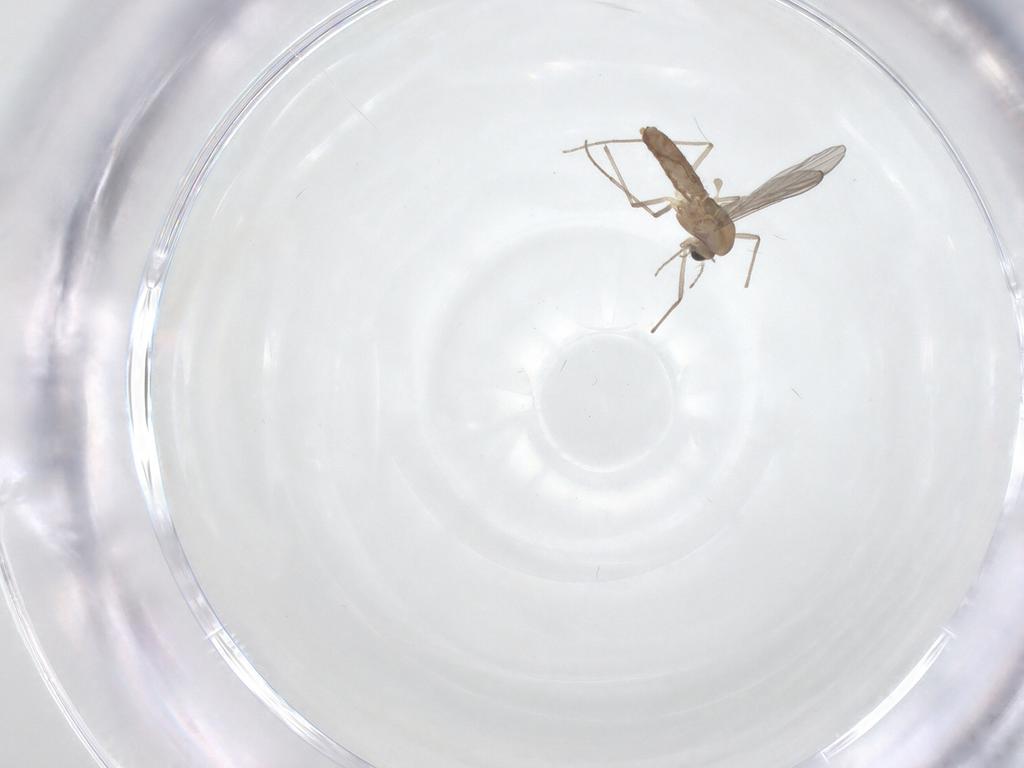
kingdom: Animalia
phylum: Arthropoda
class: Insecta
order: Diptera
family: Chironomidae
